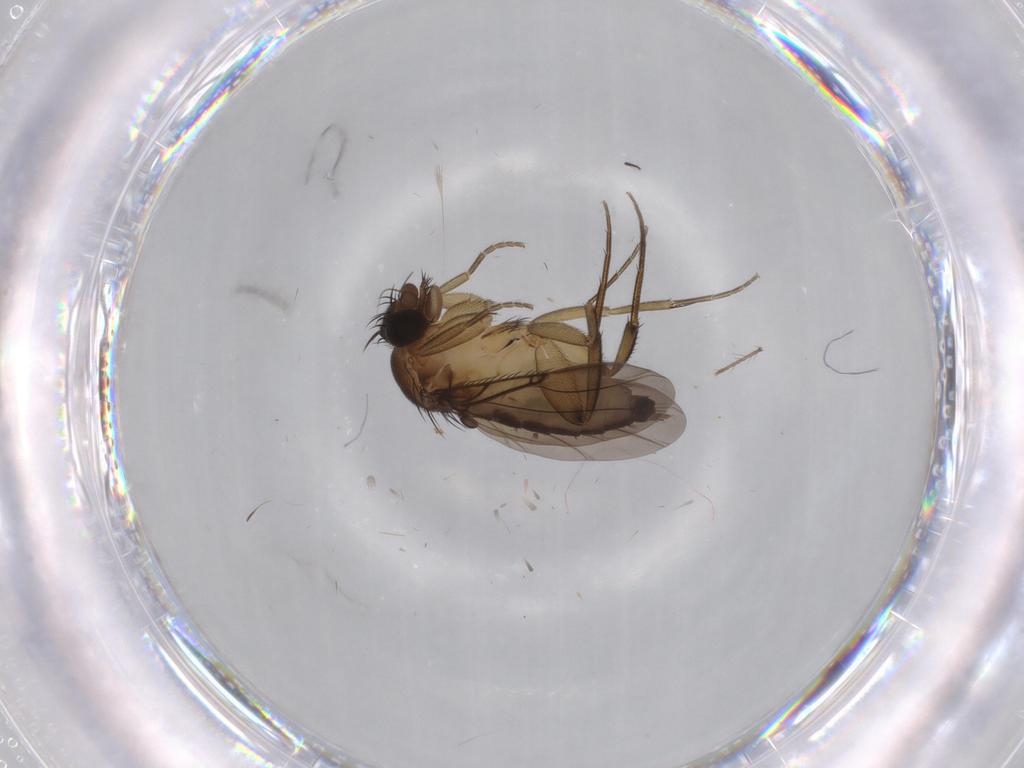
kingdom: Animalia
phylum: Arthropoda
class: Insecta
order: Diptera
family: Phoridae
